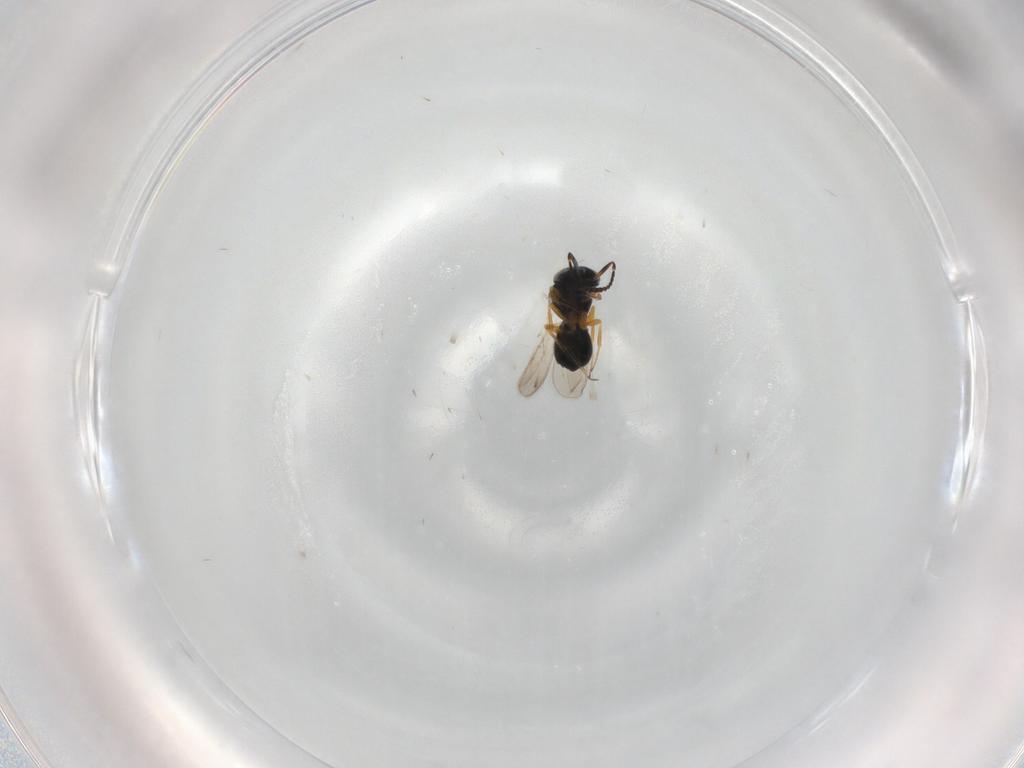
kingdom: Animalia
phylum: Arthropoda
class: Insecta
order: Hymenoptera
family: Scelionidae
